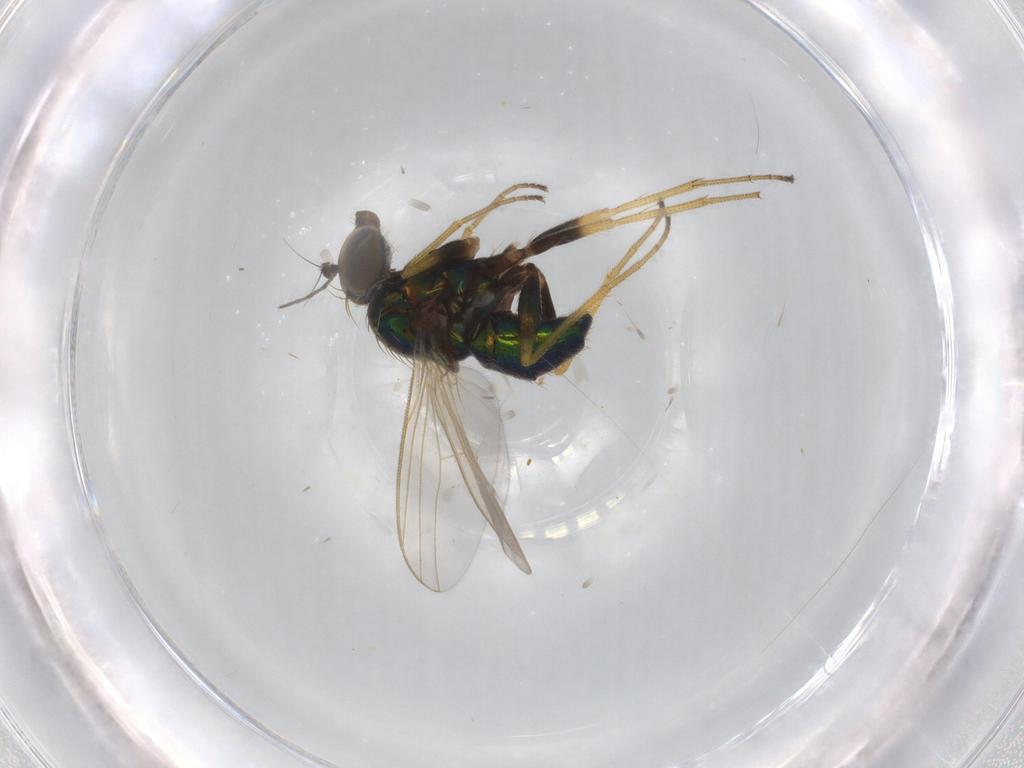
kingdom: Animalia
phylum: Arthropoda
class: Insecta
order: Diptera
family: Dolichopodidae
